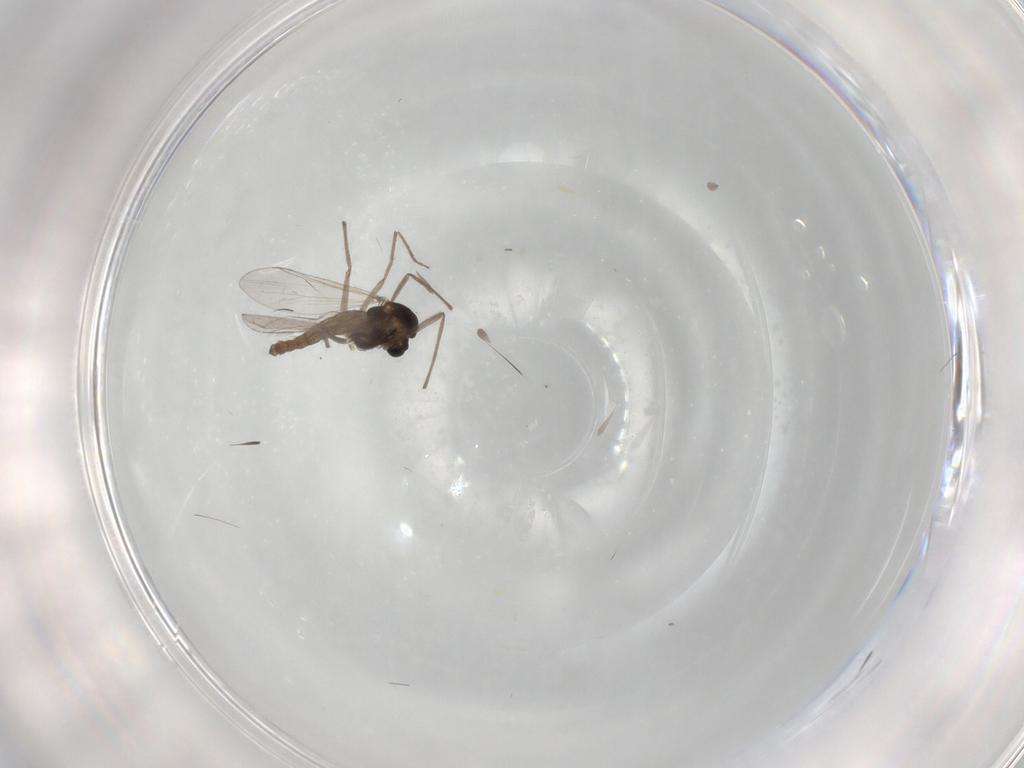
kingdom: Animalia
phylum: Arthropoda
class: Insecta
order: Diptera
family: Chironomidae
